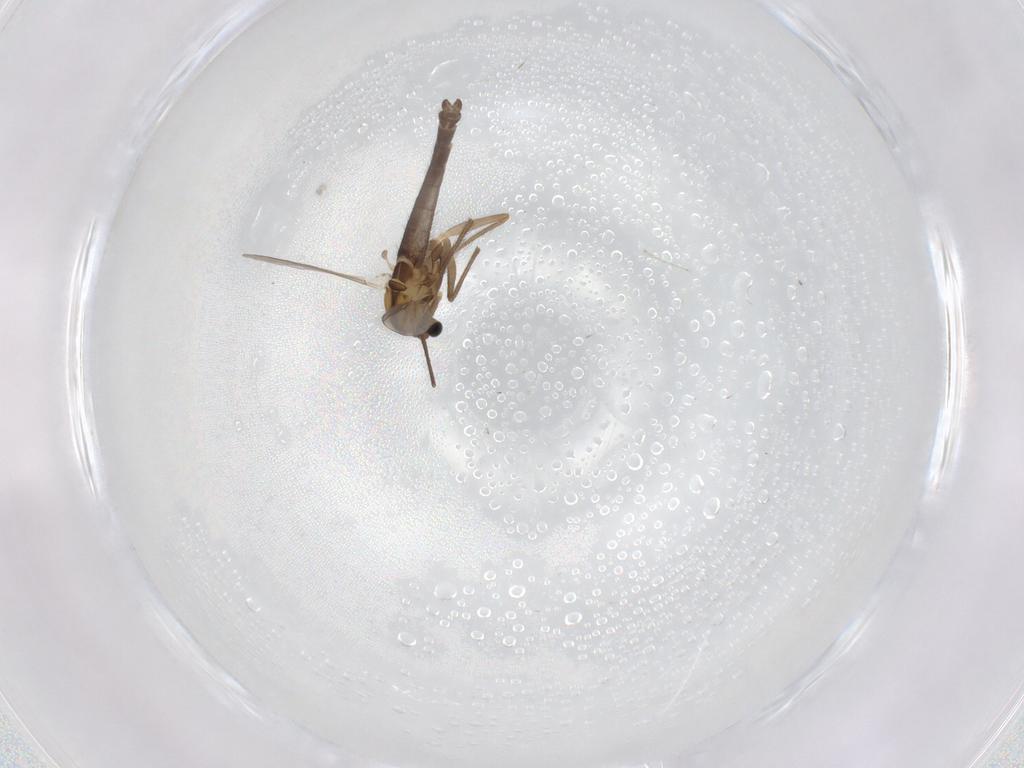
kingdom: Animalia
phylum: Arthropoda
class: Insecta
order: Diptera
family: Chironomidae
